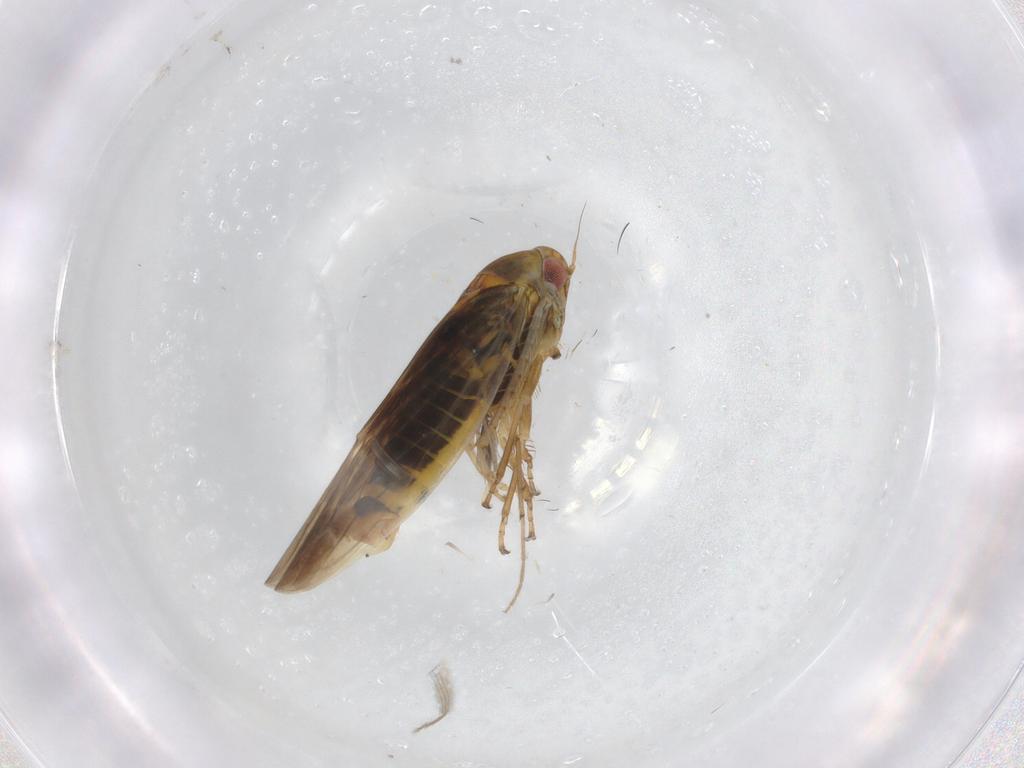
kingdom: Animalia
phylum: Arthropoda
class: Insecta
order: Hemiptera
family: Cicadellidae
